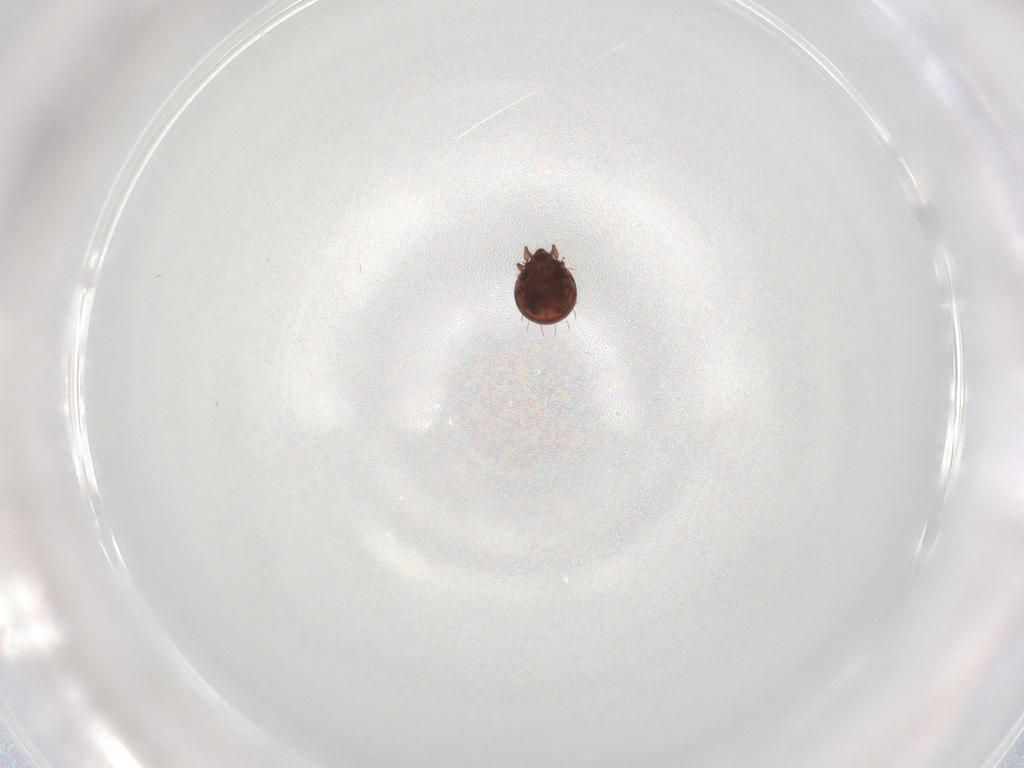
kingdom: Animalia
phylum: Arthropoda
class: Arachnida
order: Sarcoptiformes
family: Ceratozetidae
